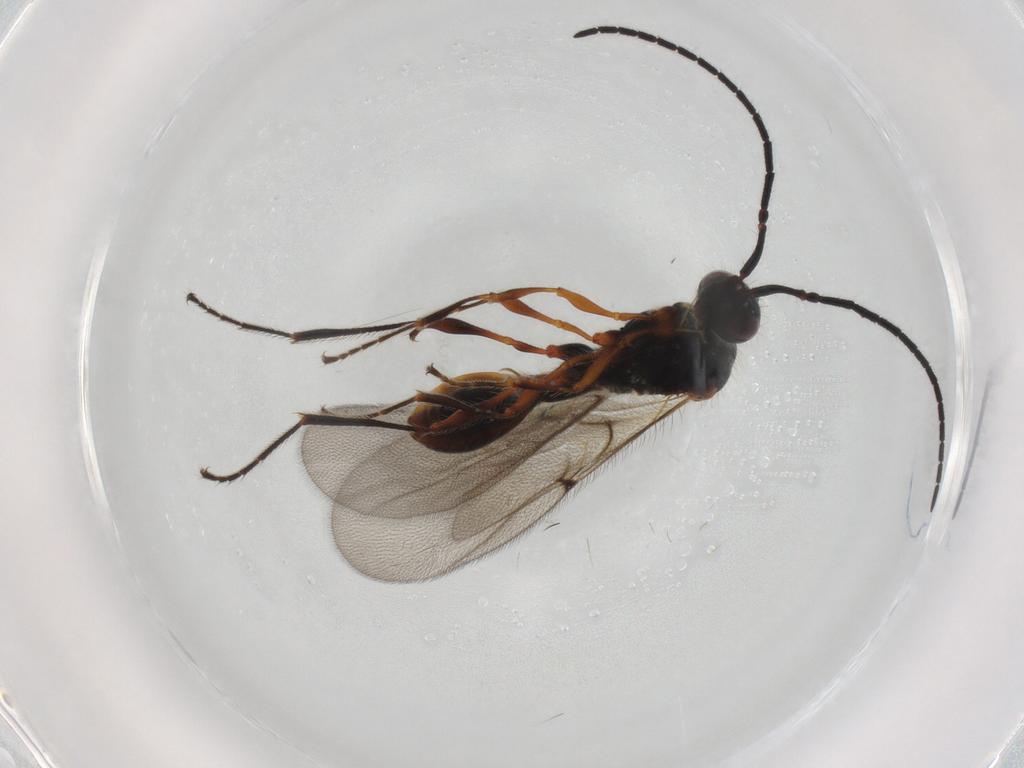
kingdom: Animalia
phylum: Arthropoda
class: Insecta
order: Hymenoptera
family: Diapriidae
